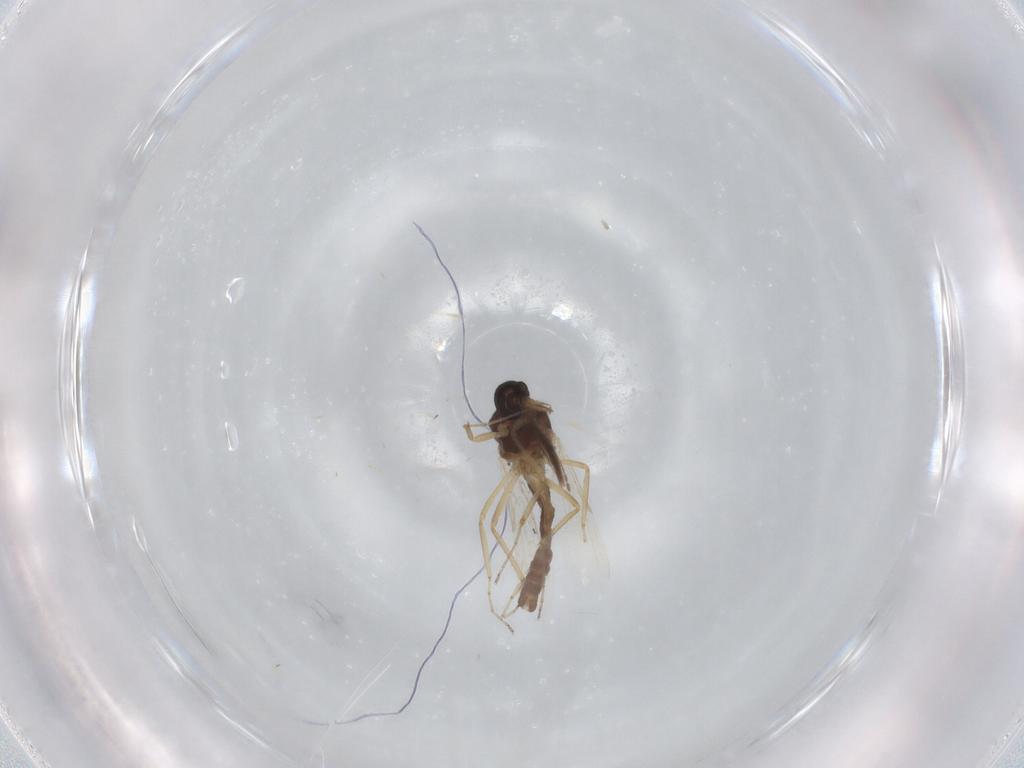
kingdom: Animalia
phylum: Arthropoda
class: Insecta
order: Diptera
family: Ceratopogonidae
